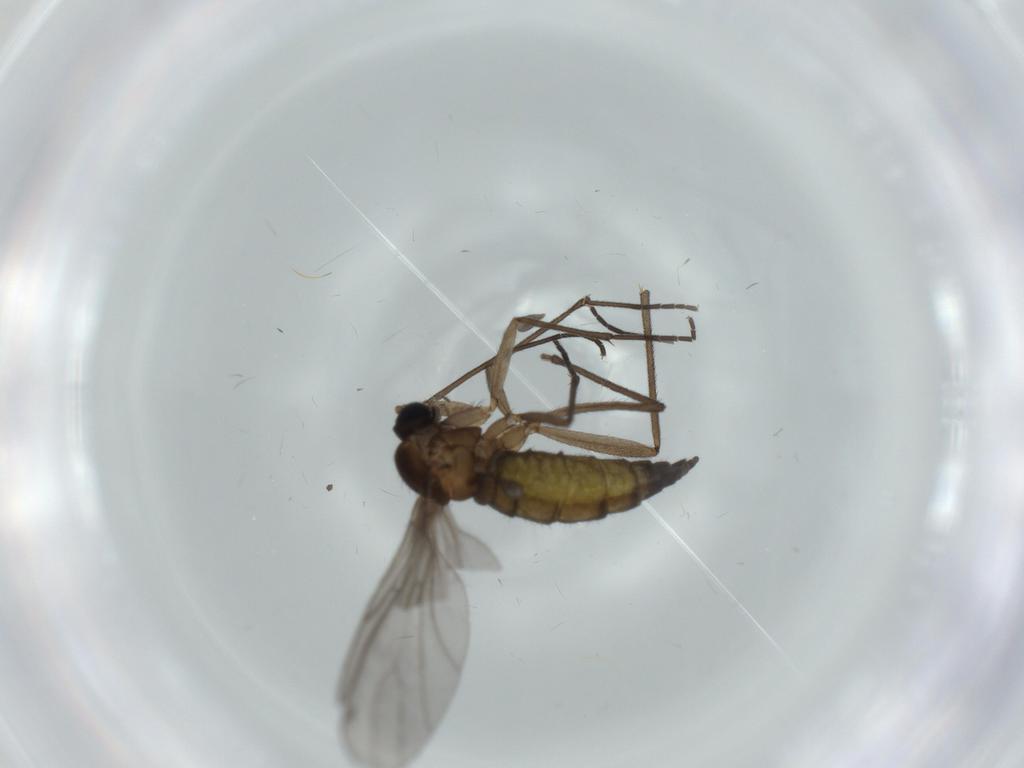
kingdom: Animalia
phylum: Arthropoda
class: Insecta
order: Diptera
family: Sciaridae
